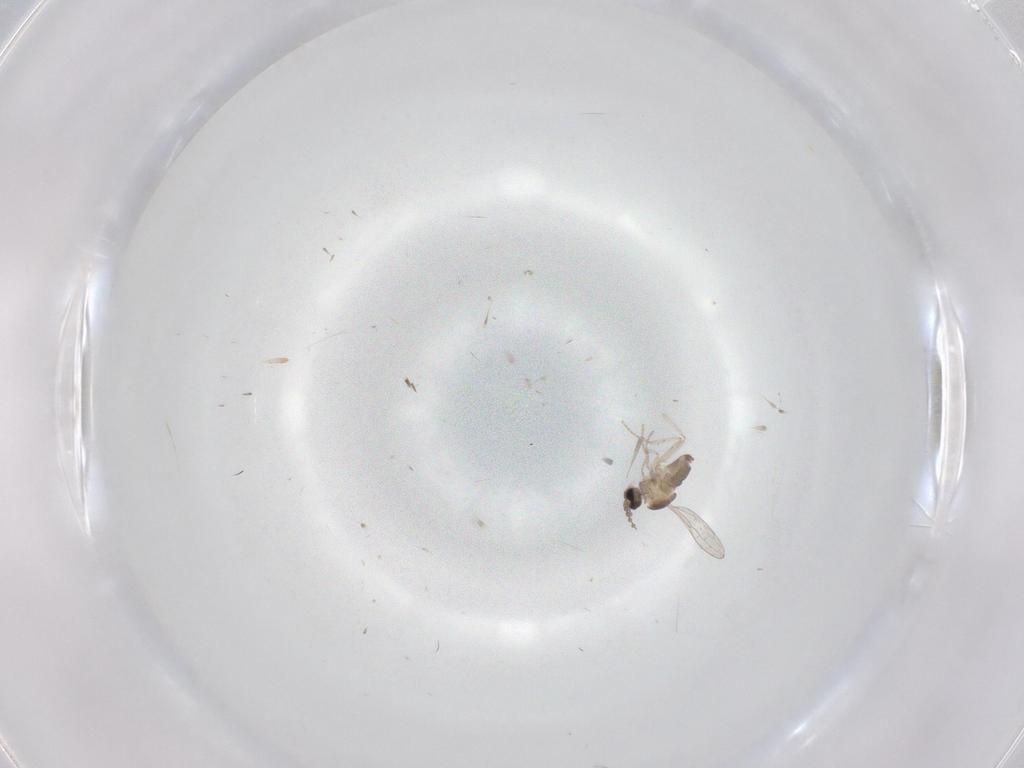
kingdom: Animalia
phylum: Arthropoda
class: Insecta
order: Diptera
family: Cecidomyiidae
